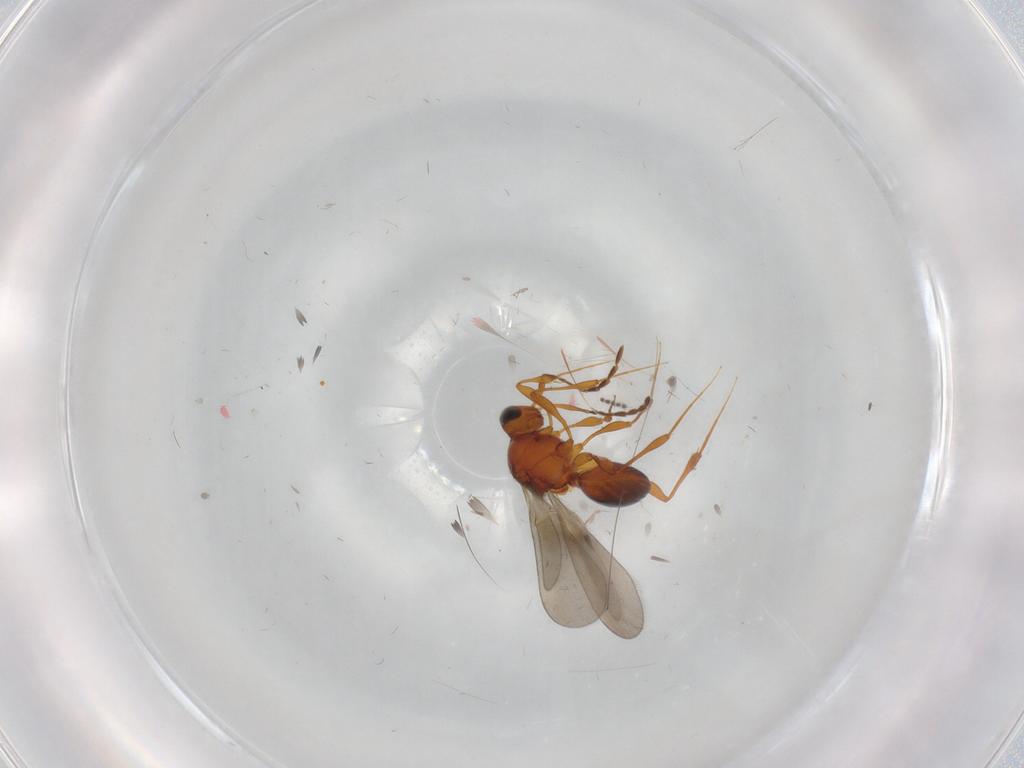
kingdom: Animalia
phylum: Arthropoda
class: Insecta
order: Hymenoptera
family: Platygastridae
